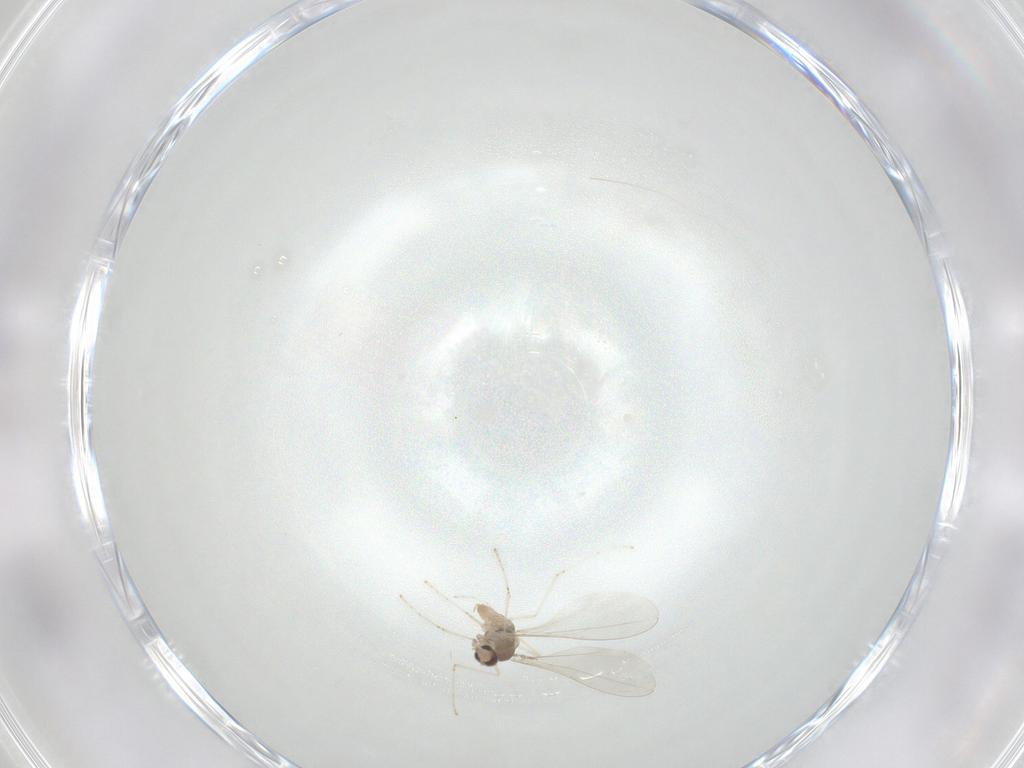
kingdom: Animalia
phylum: Arthropoda
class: Insecta
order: Diptera
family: Cecidomyiidae
